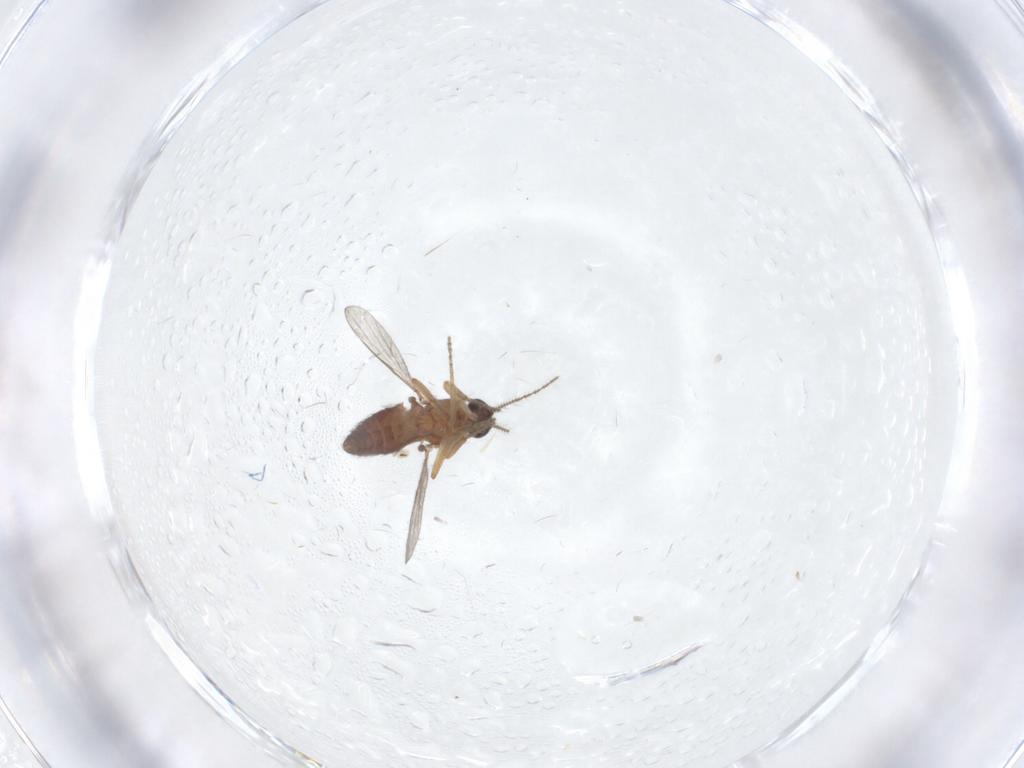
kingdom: Animalia
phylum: Arthropoda
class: Insecta
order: Diptera
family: Ceratopogonidae
